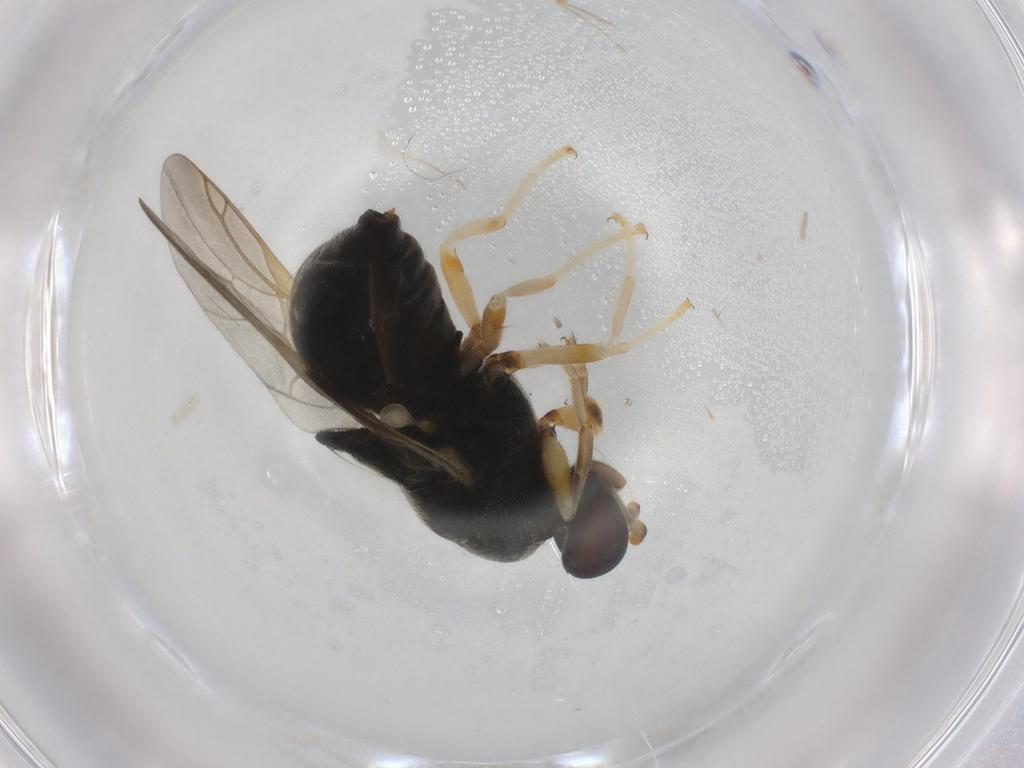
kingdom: Animalia
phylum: Arthropoda
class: Insecta
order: Diptera
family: Stratiomyidae
